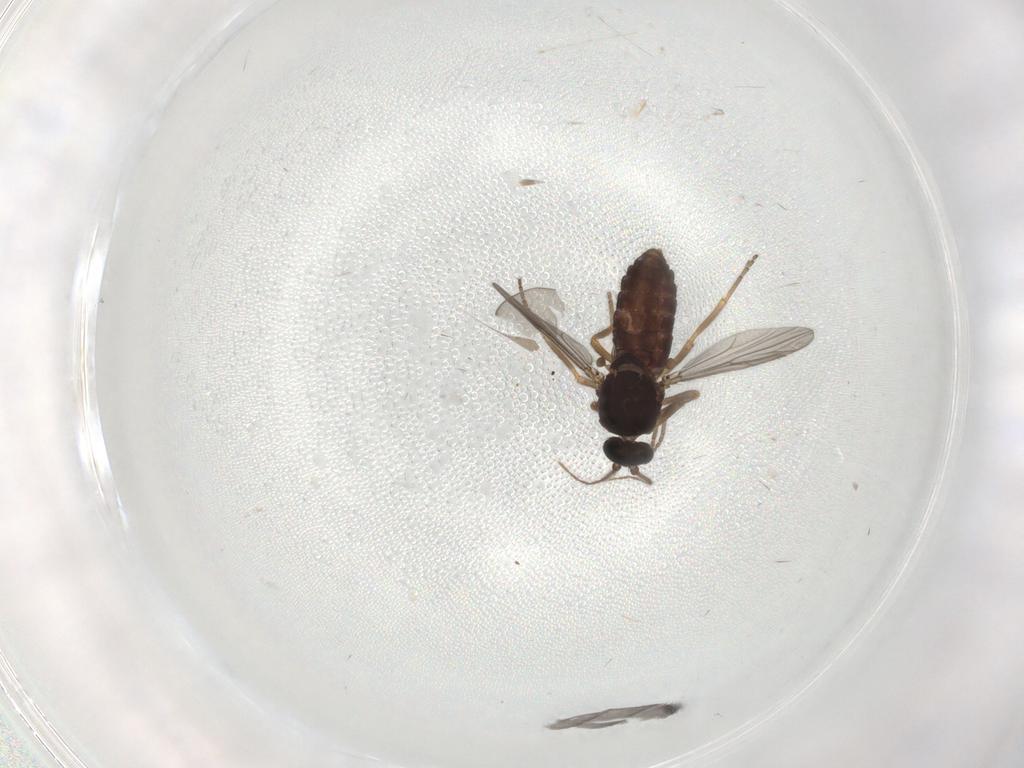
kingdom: Animalia
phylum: Arthropoda
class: Insecta
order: Diptera
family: Ceratopogonidae
